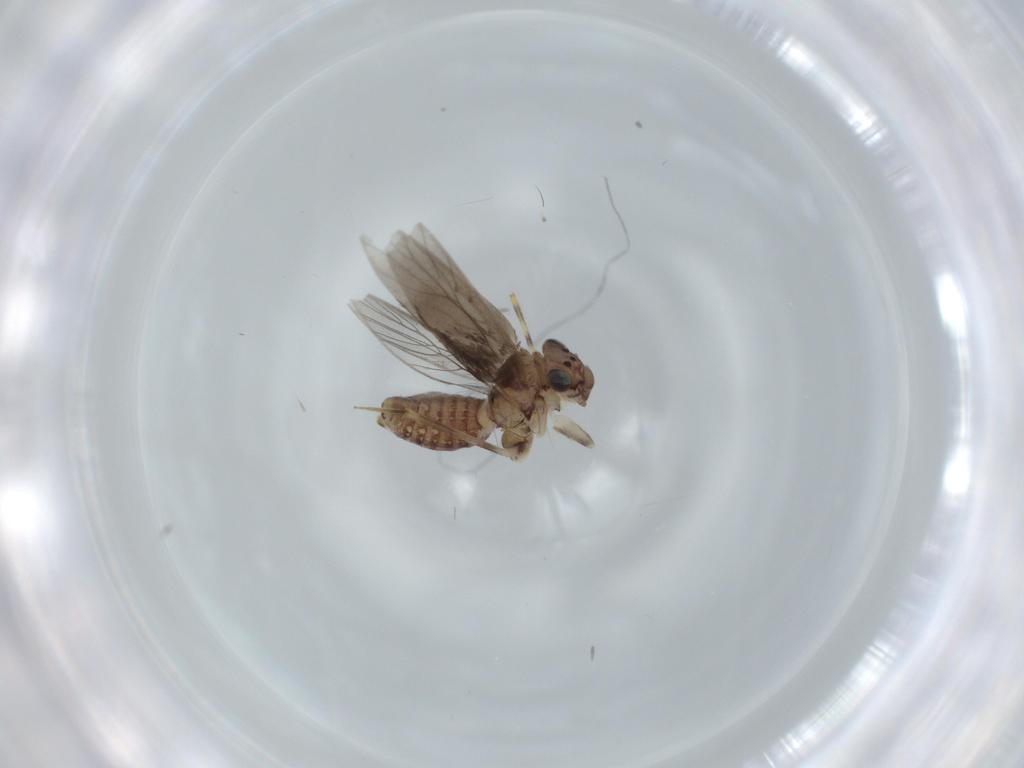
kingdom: Animalia
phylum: Arthropoda
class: Insecta
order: Psocodea
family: Lepidopsocidae
